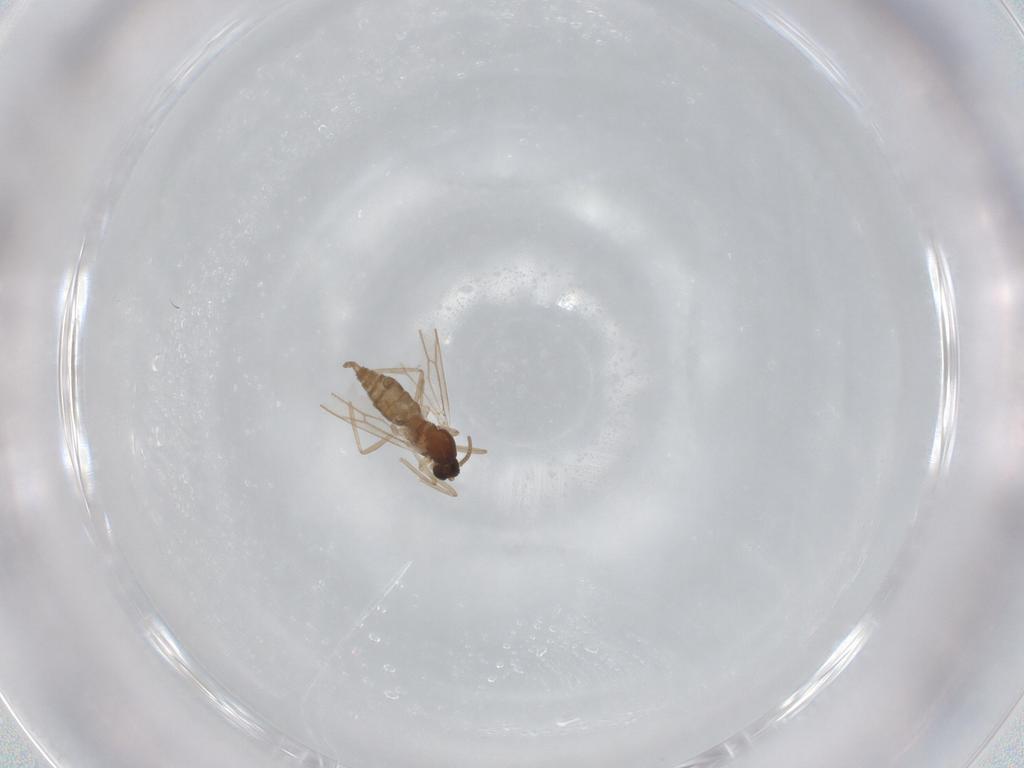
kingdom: Animalia
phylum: Arthropoda
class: Insecta
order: Diptera
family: Cecidomyiidae
